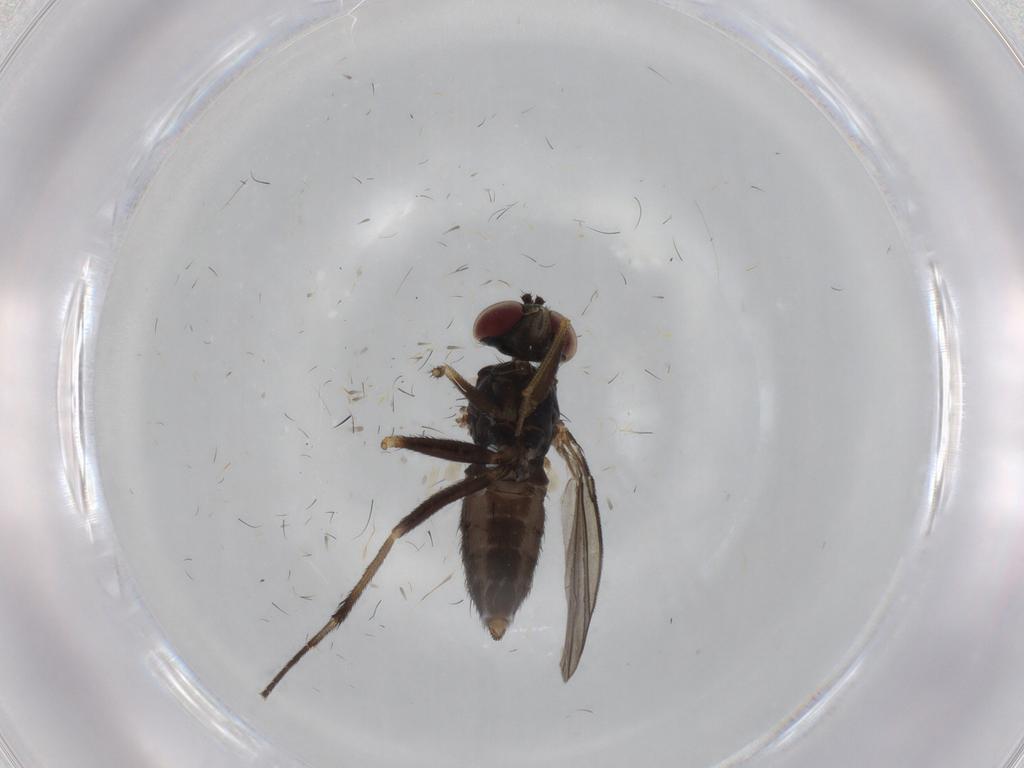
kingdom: Animalia
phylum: Arthropoda
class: Insecta
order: Diptera
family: Dolichopodidae
